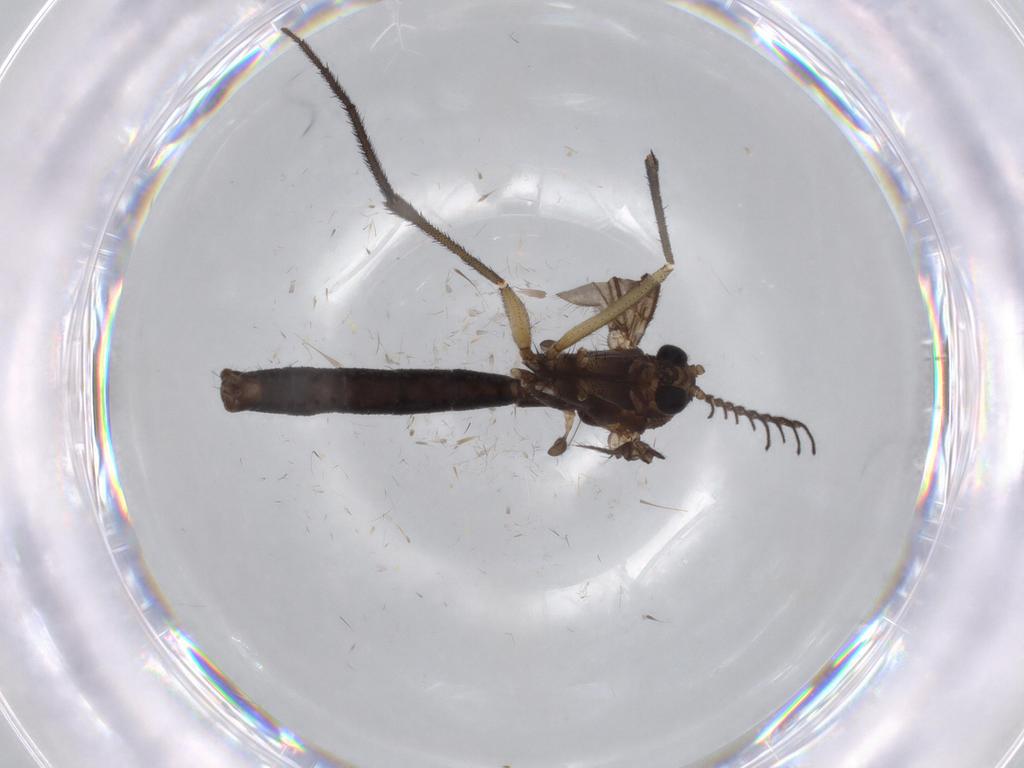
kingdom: Animalia
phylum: Arthropoda
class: Insecta
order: Diptera
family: Cecidomyiidae
